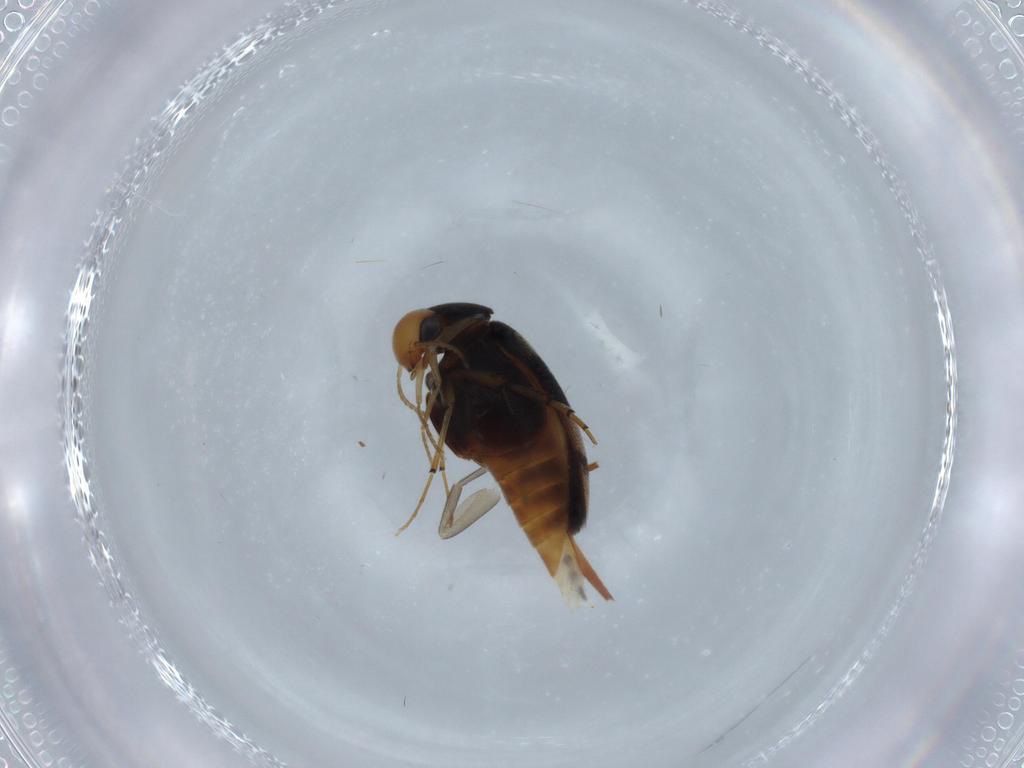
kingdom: Animalia
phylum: Arthropoda
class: Insecta
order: Coleoptera
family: Mordellidae
